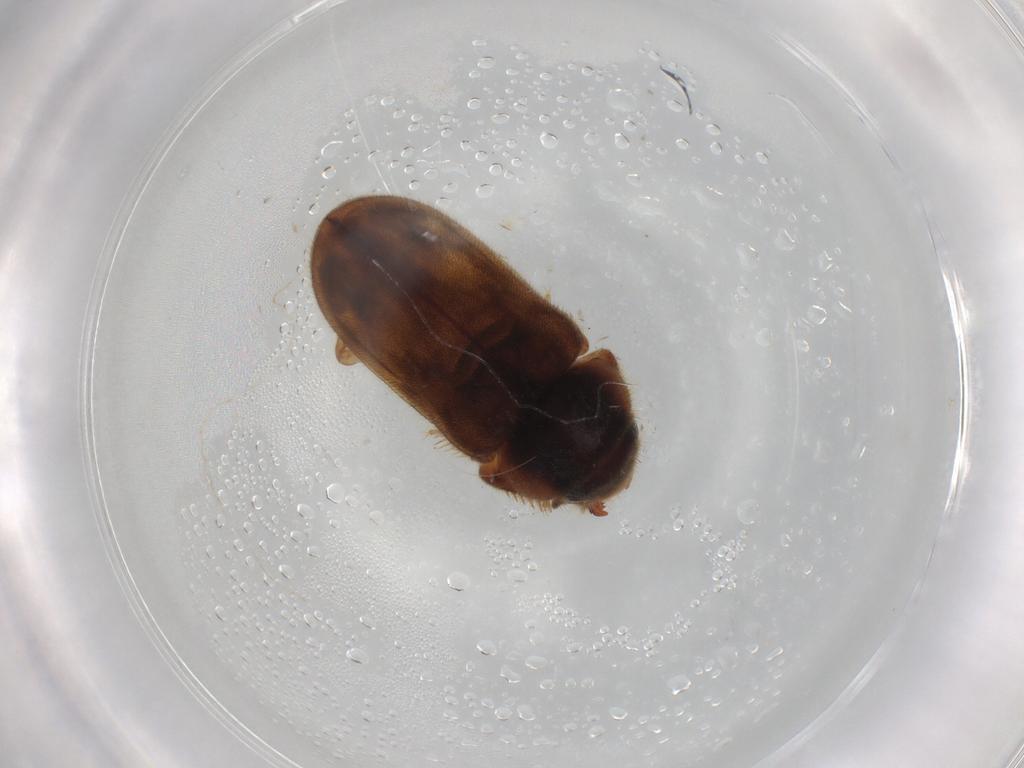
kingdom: Animalia
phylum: Arthropoda
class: Insecta
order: Coleoptera
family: Heteroceridae
